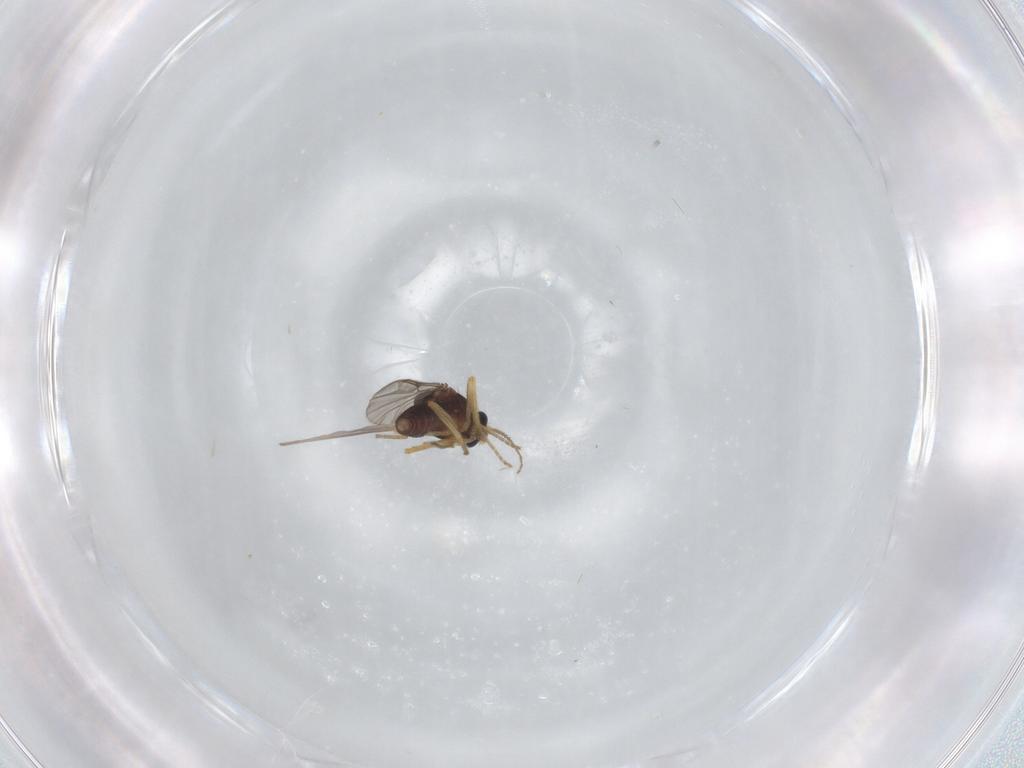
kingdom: Animalia
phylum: Arthropoda
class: Insecta
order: Diptera
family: Ceratopogonidae
